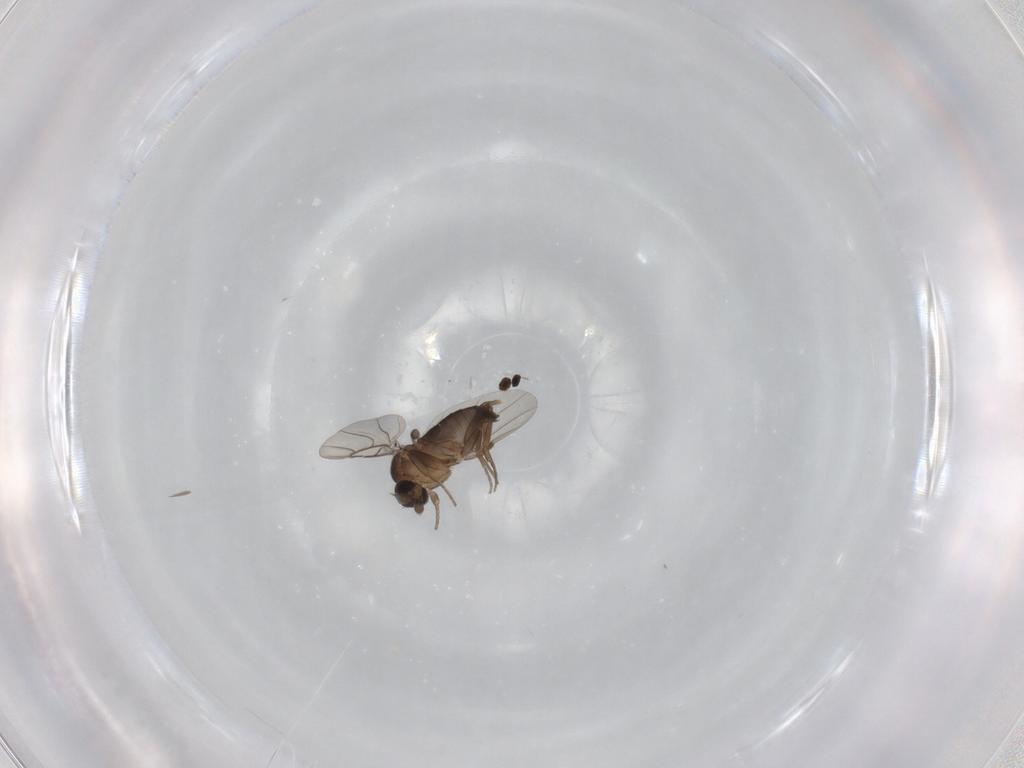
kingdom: Animalia
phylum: Arthropoda
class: Insecta
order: Diptera
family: Phoridae
